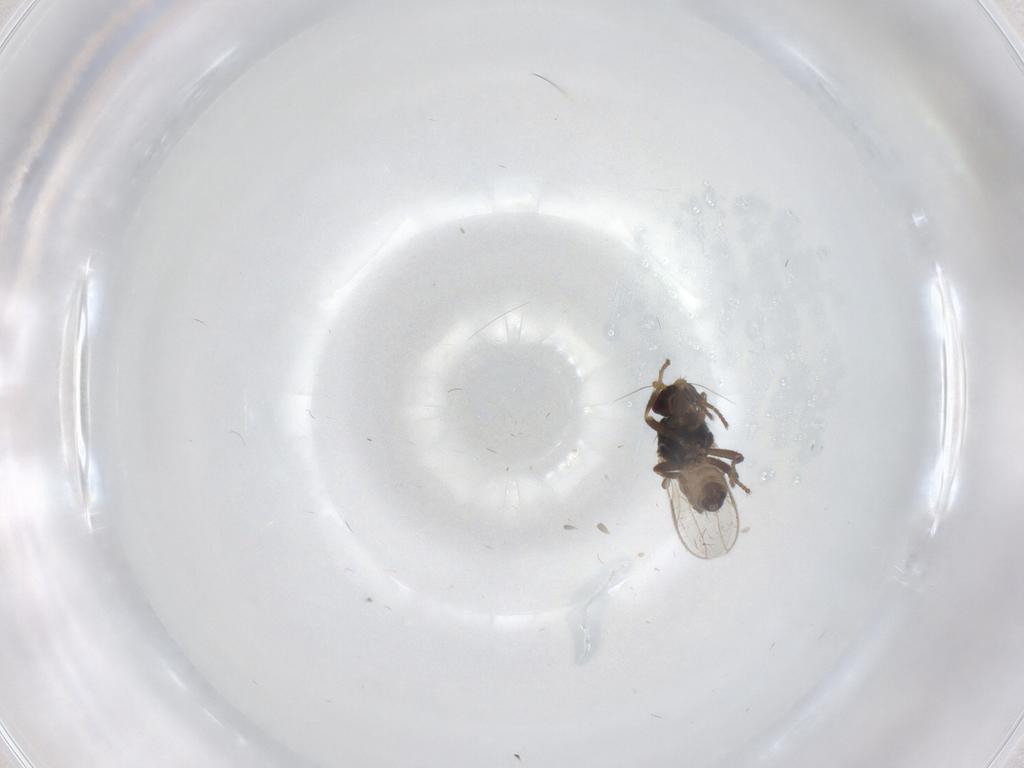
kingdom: Animalia
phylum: Arthropoda
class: Insecta
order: Diptera
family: Sphaeroceridae
